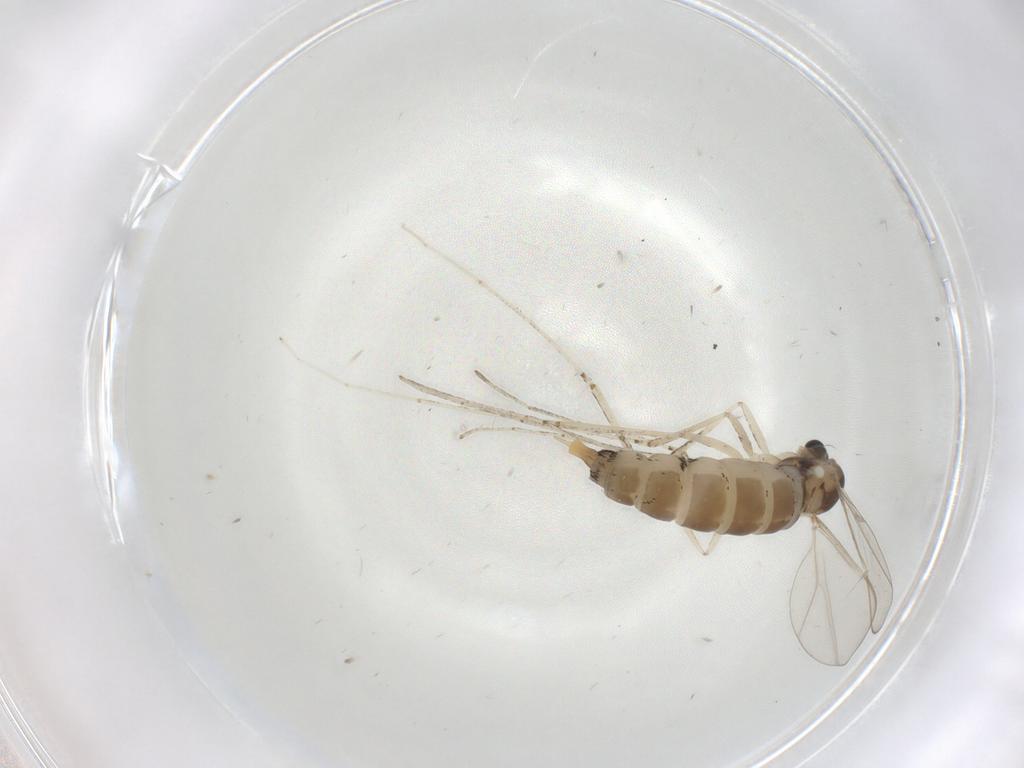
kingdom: Animalia
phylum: Arthropoda
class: Insecta
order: Diptera
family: Cecidomyiidae
